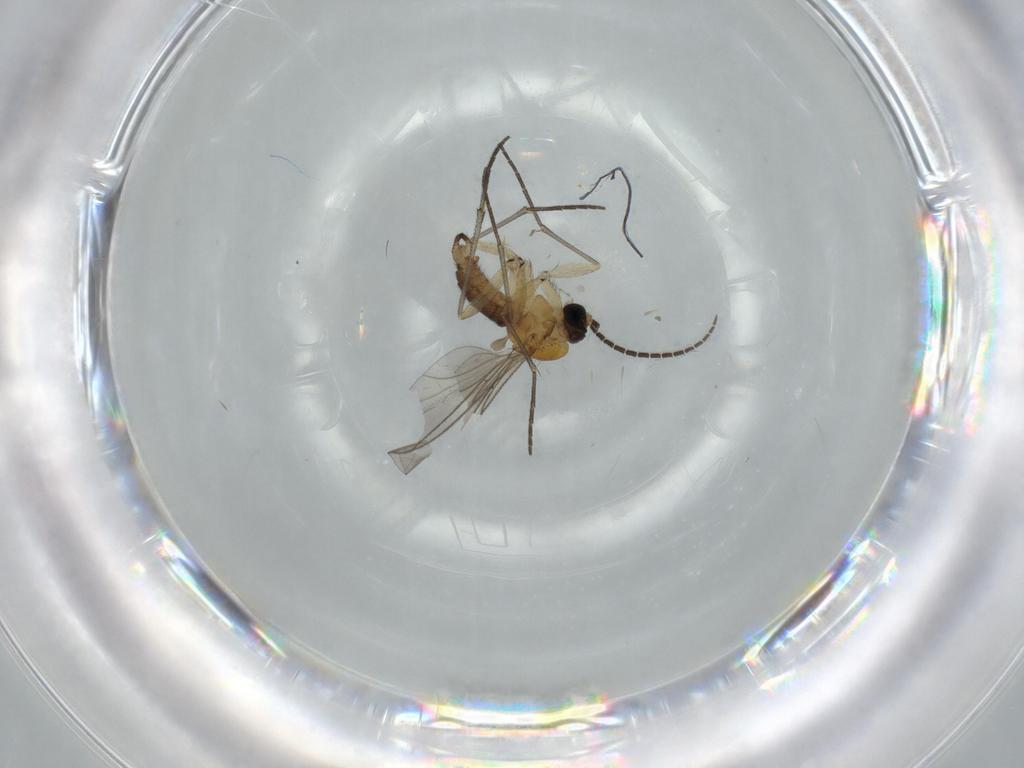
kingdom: Animalia
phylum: Arthropoda
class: Insecta
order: Diptera
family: Sciaridae
